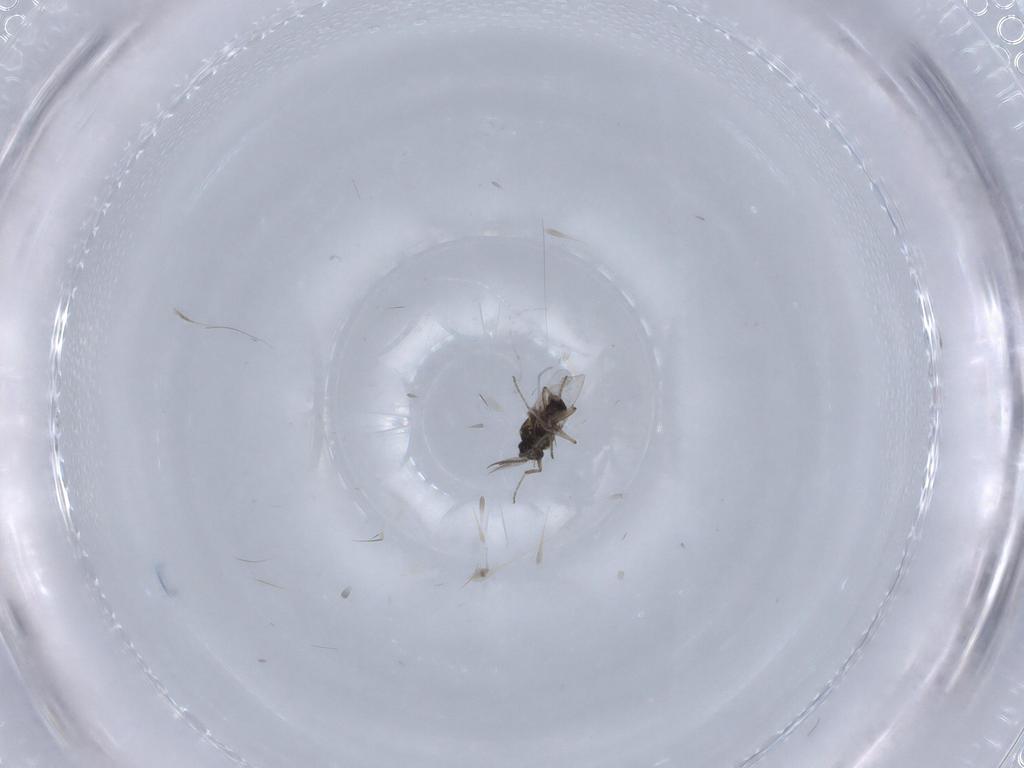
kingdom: Animalia
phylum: Arthropoda
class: Insecta
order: Diptera
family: Ceratopogonidae
